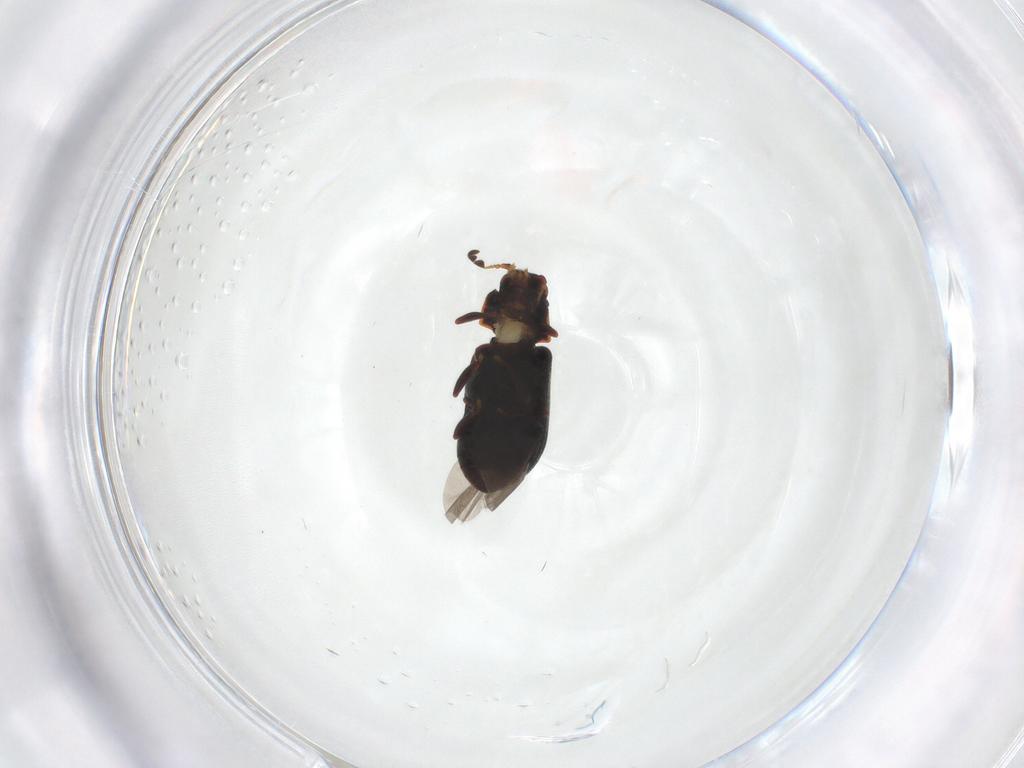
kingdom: Animalia
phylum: Arthropoda
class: Insecta
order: Coleoptera
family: Ptinidae
